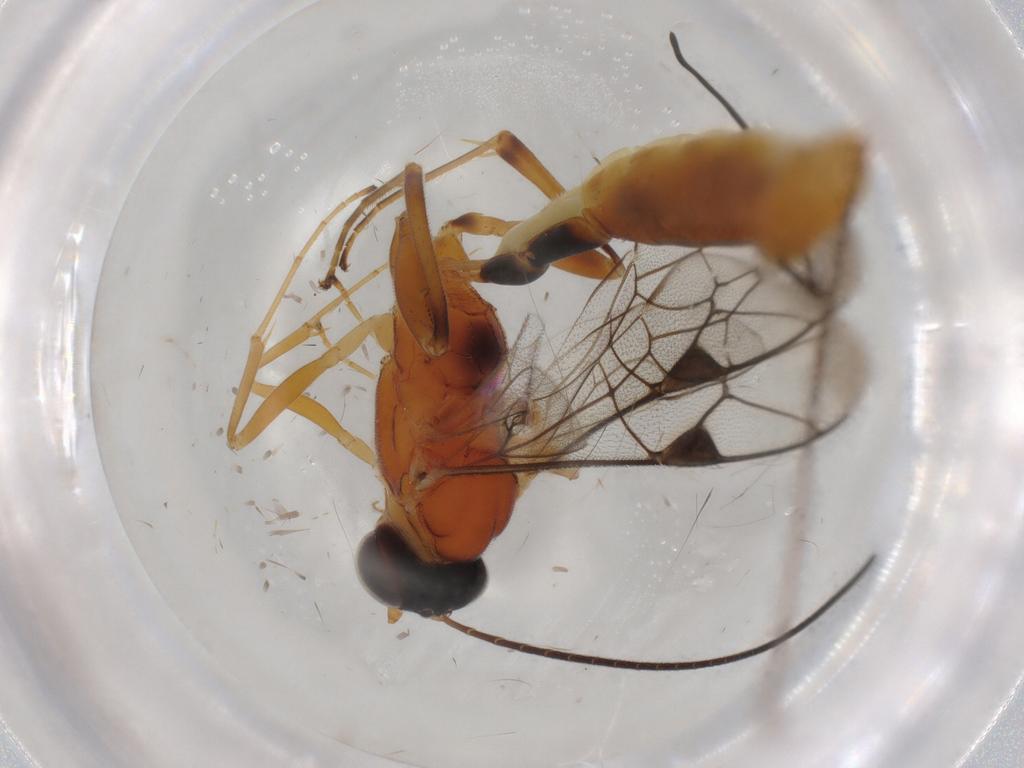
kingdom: Animalia
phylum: Arthropoda
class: Insecta
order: Hymenoptera
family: Ichneumonidae
